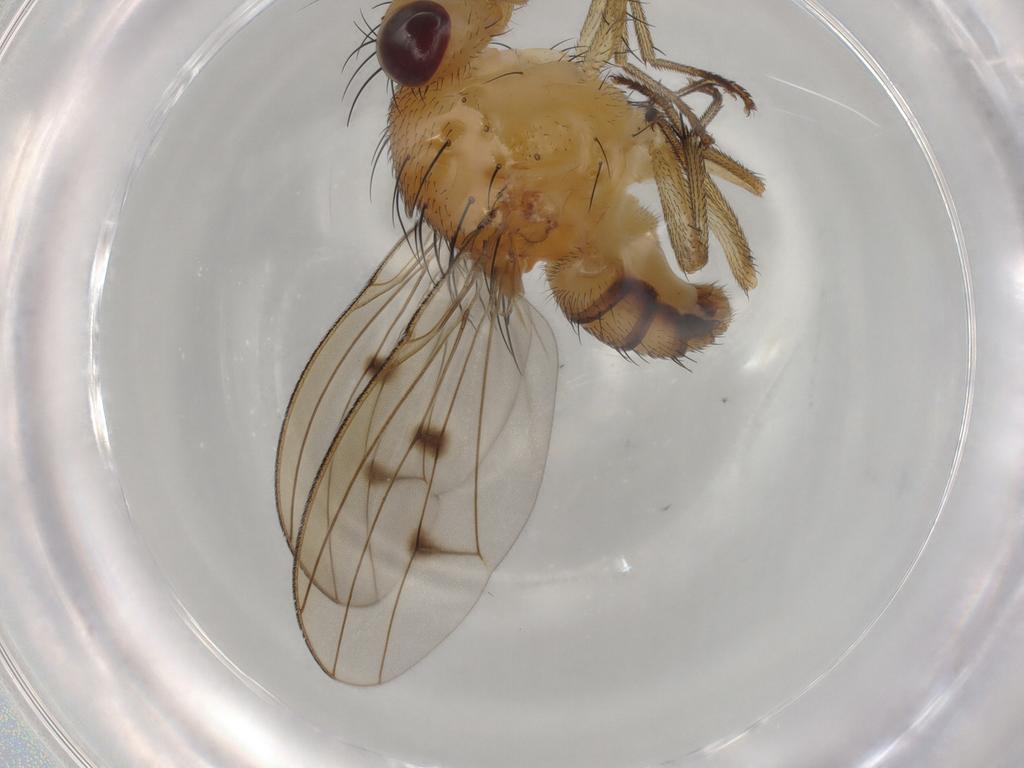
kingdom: Animalia
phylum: Arthropoda
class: Insecta
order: Diptera
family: Lauxaniidae
